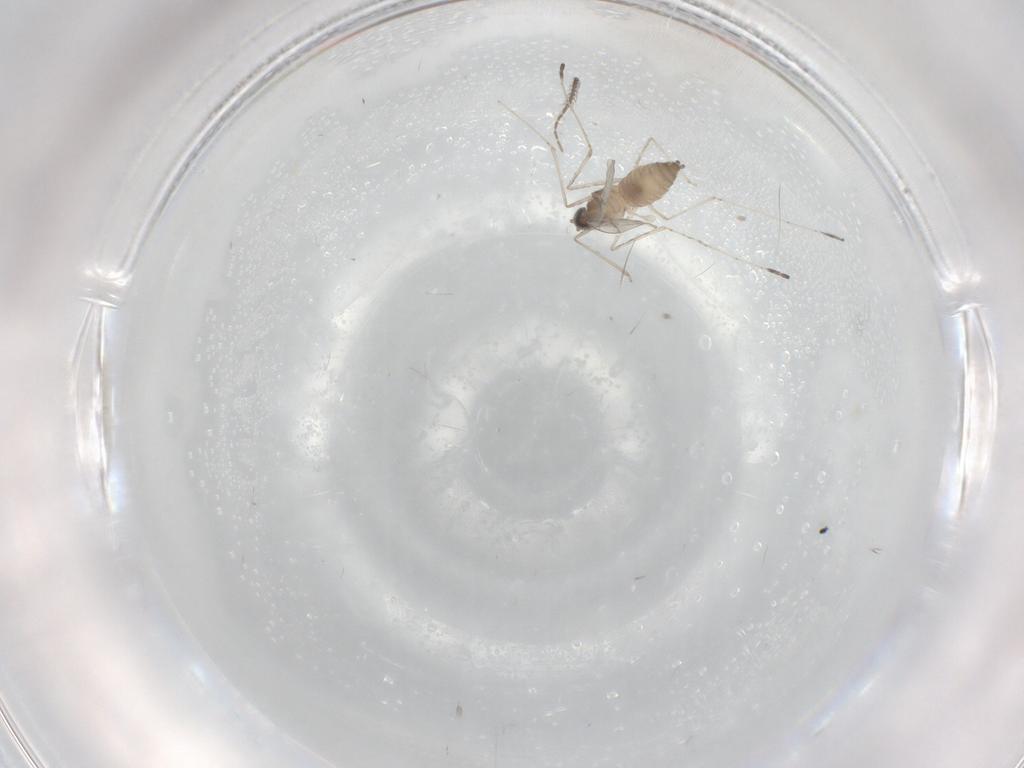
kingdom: Animalia
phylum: Arthropoda
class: Insecta
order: Diptera
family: Cecidomyiidae
